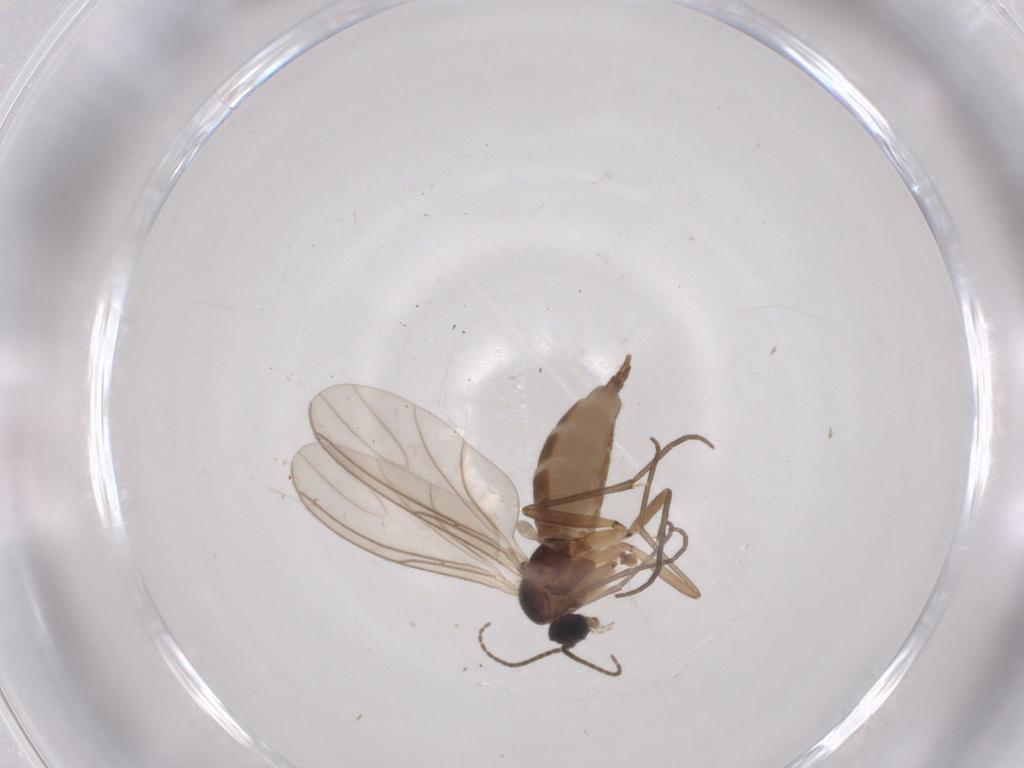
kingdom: Animalia
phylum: Arthropoda
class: Insecta
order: Diptera
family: Sciaridae
